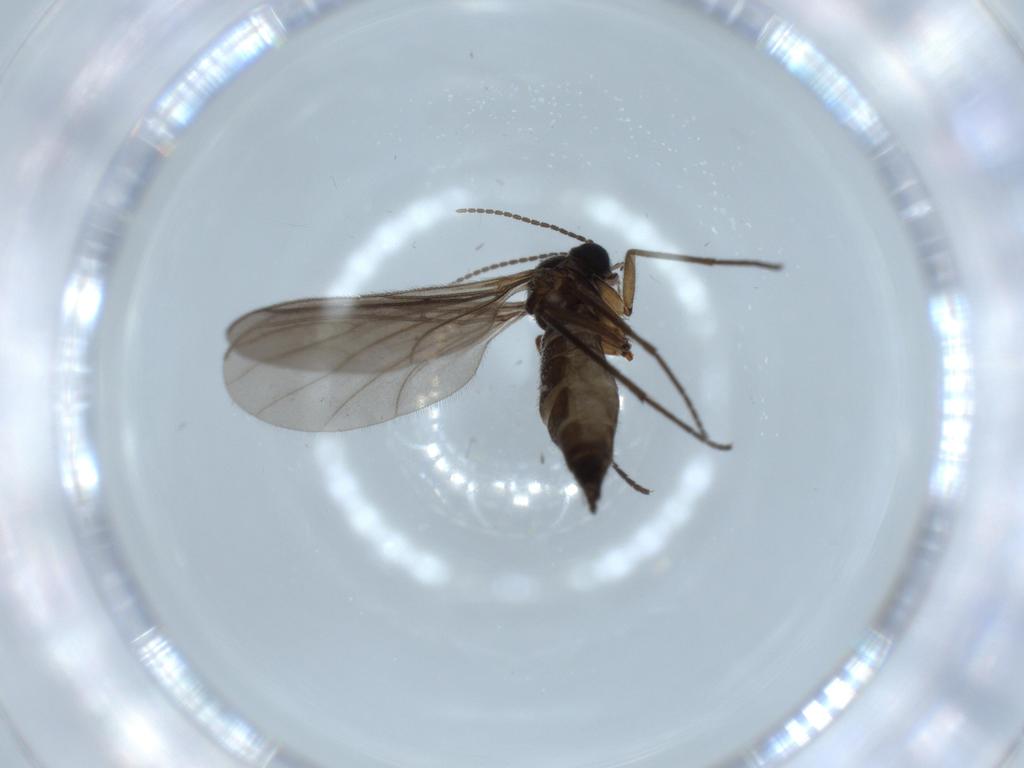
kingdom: Animalia
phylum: Arthropoda
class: Insecta
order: Diptera
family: Sciaridae
